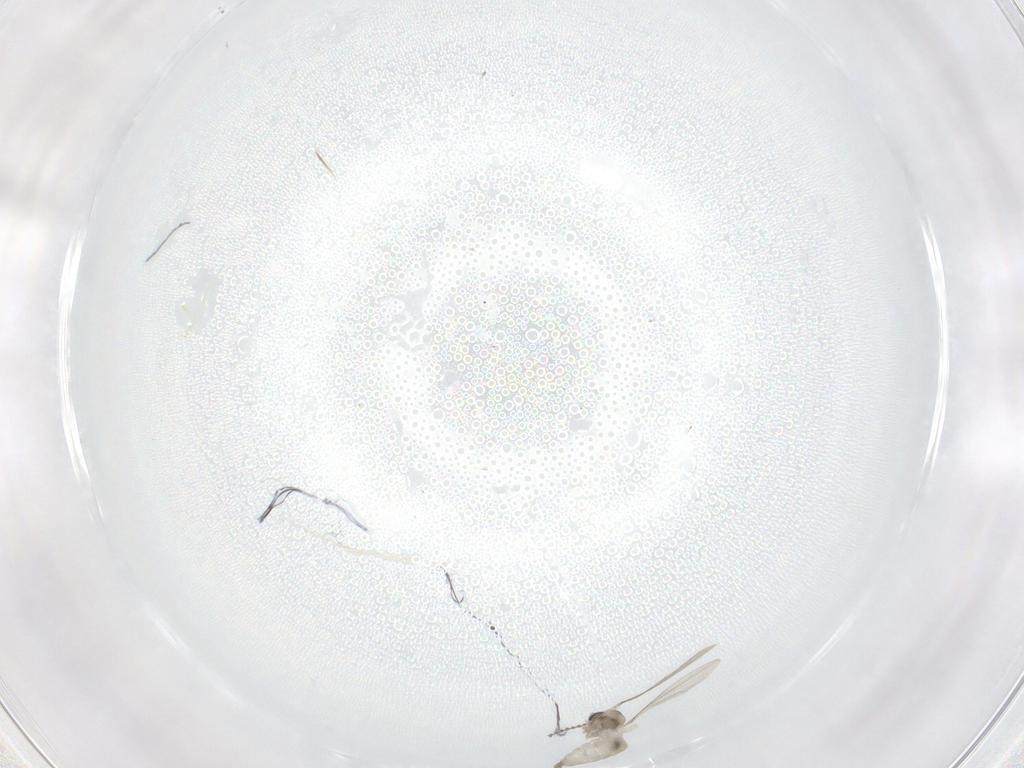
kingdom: Animalia
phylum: Arthropoda
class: Insecta
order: Diptera
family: Cecidomyiidae
